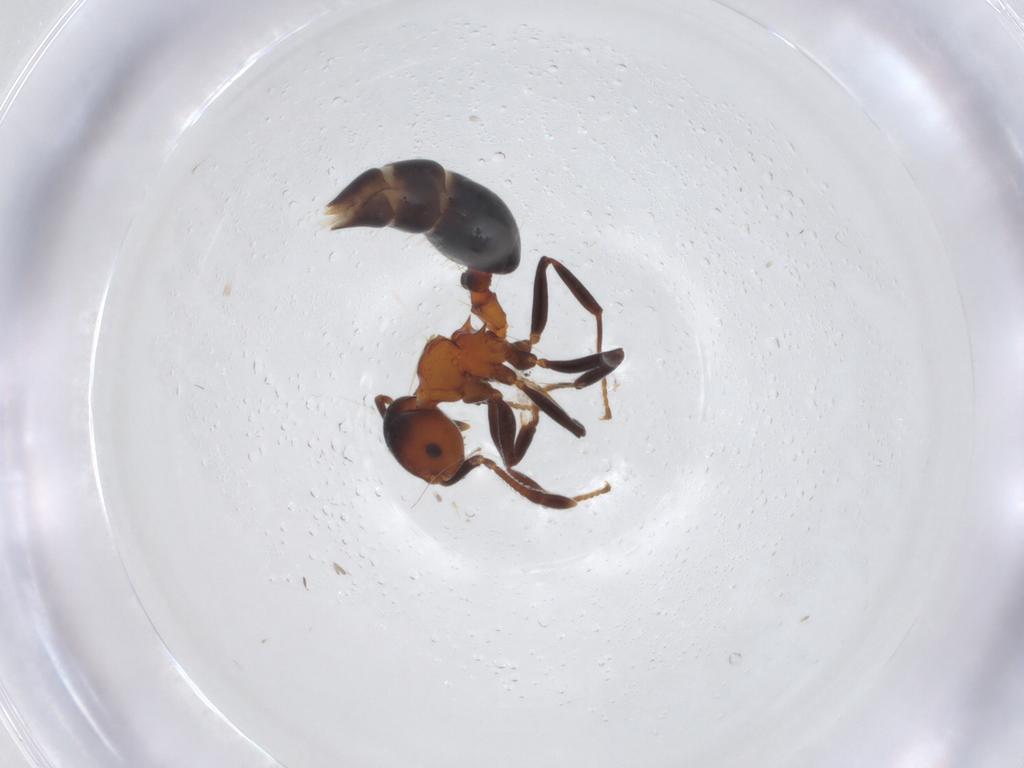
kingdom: Animalia
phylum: Arthropoda
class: Insecta
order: Hymenoptera
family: Formicidae
